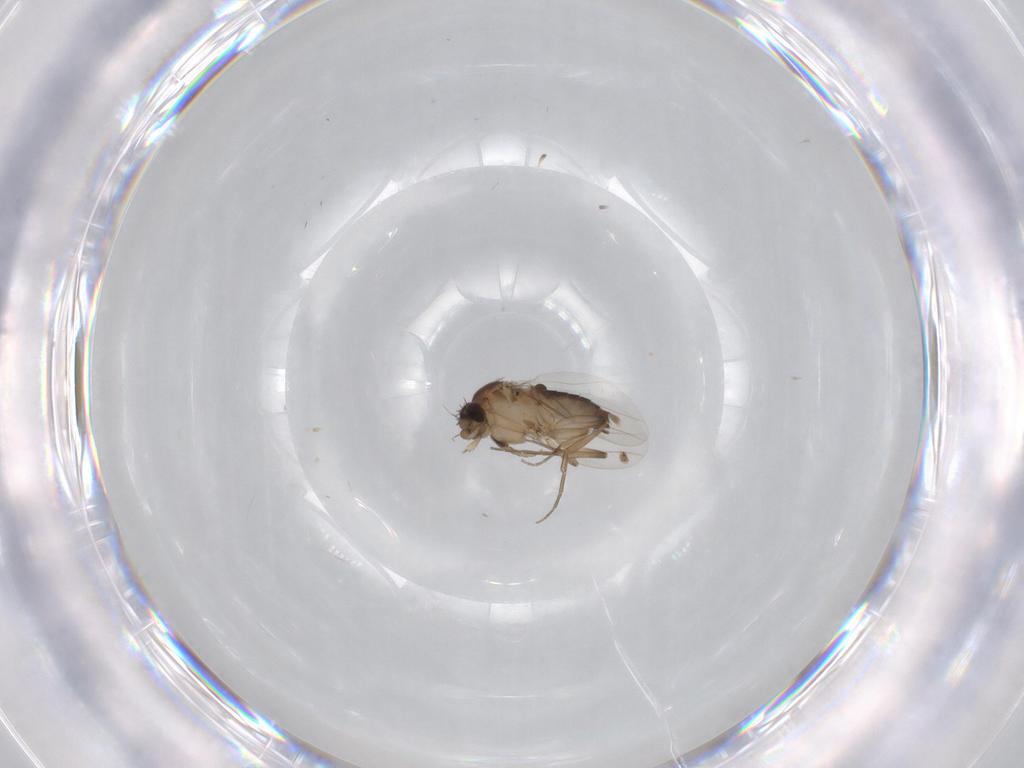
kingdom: Animalia
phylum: Arthropoda
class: Insecta
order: Diptera
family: Phoridae
